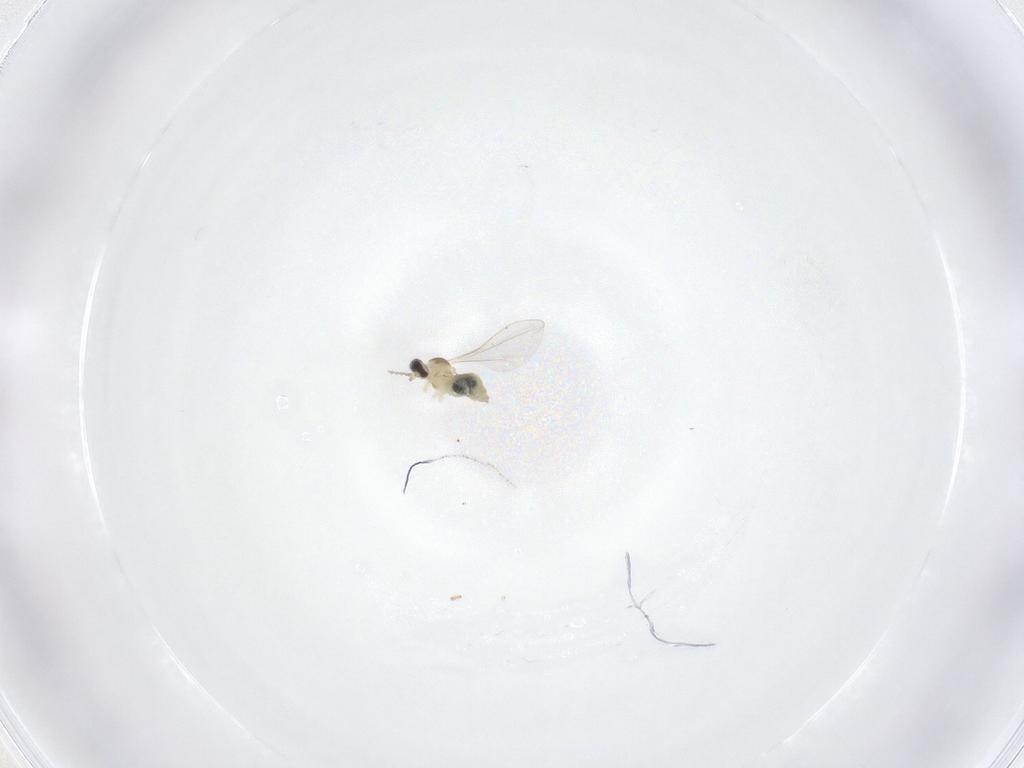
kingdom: Animalia
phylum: Arthropoda
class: Insecta
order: Diptera
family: Cecidomyiidae
